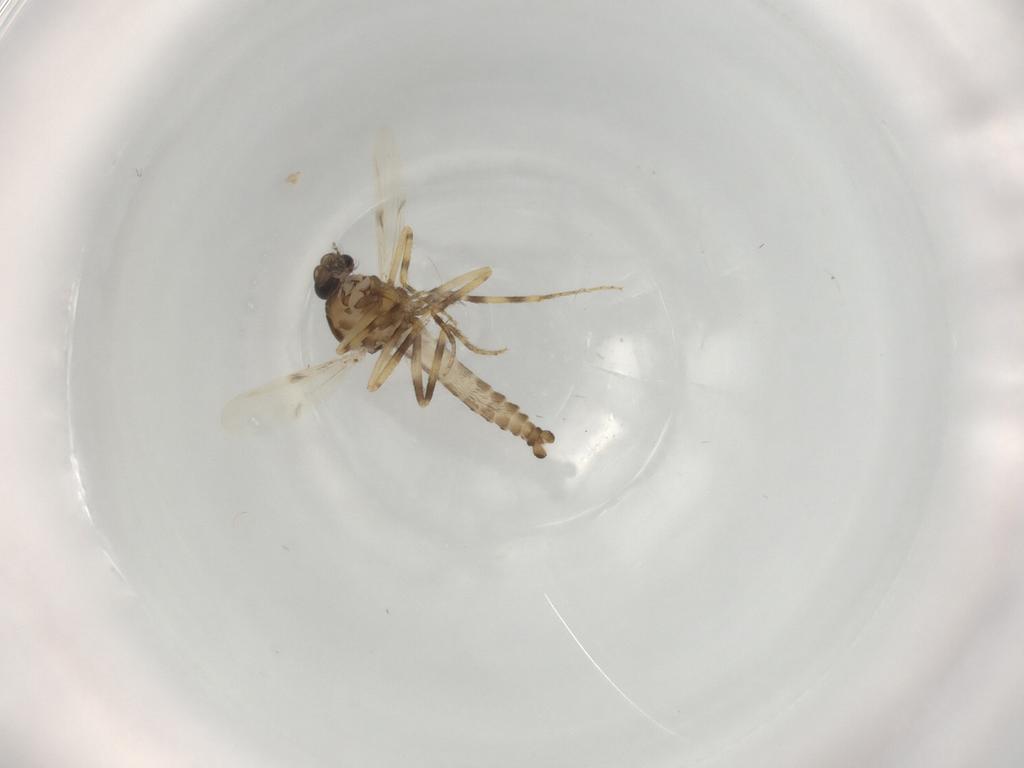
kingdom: Animalia
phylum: Arthropoda
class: Insecta
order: Diptera
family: Ceratopogonidae
